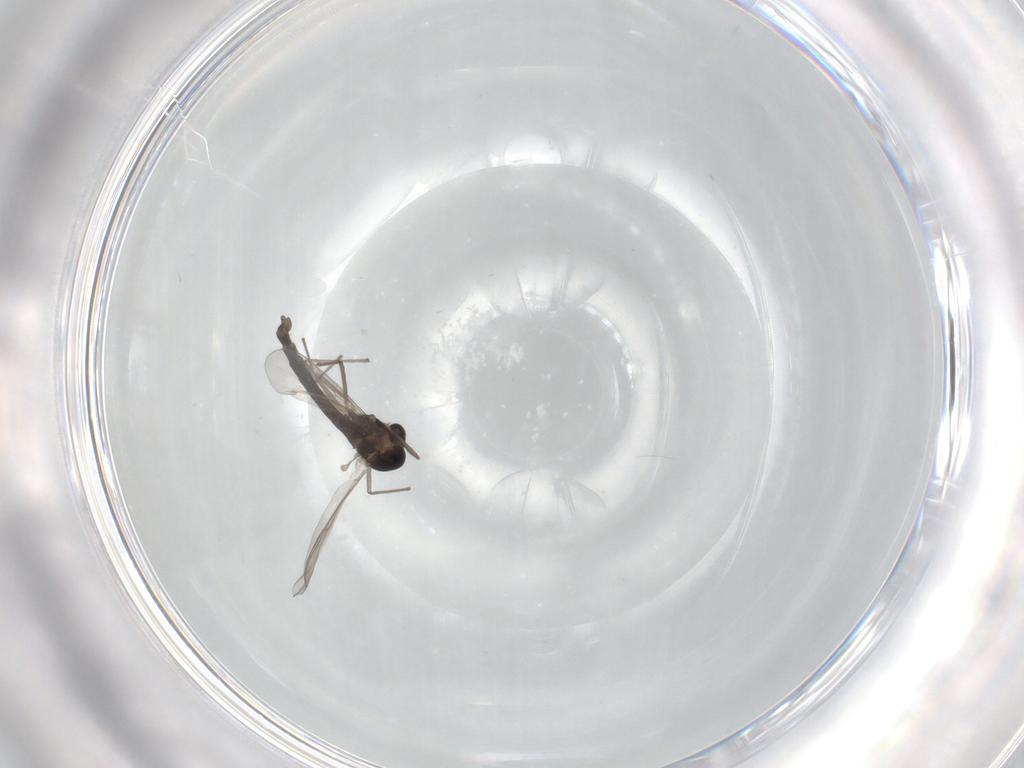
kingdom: Animalia
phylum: Arthropoda
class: Insecta
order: Diptera
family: Chironomidae
